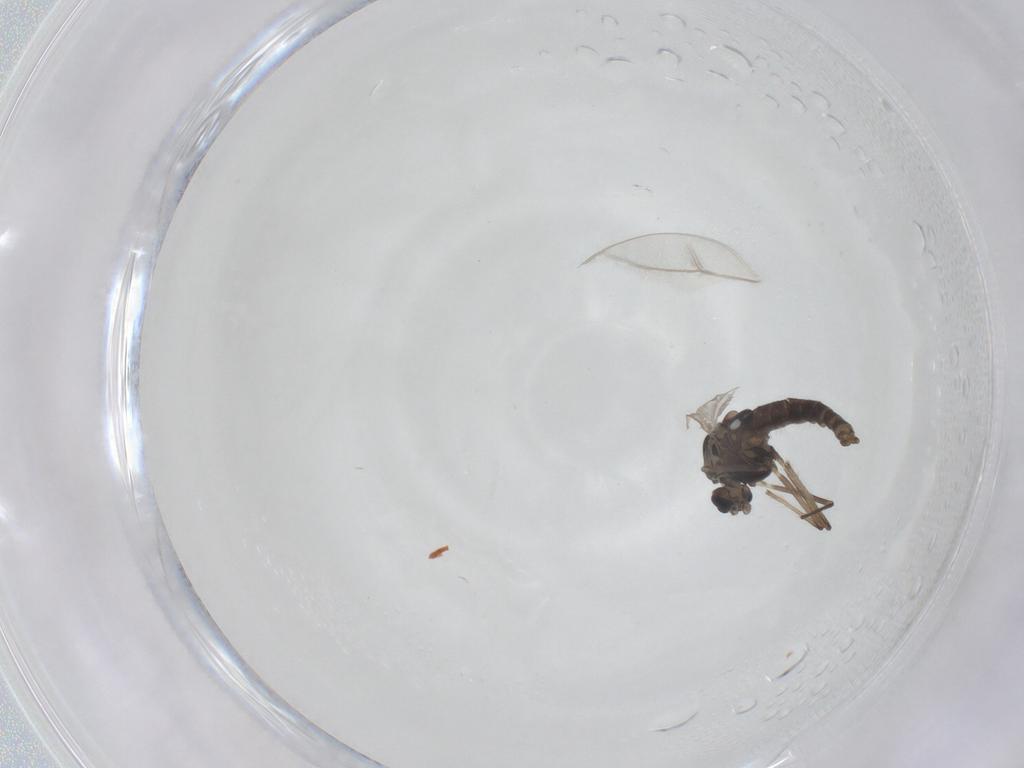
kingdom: Animalia
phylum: Arthropoda
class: Insecta
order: Diptera
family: Chironomidae
